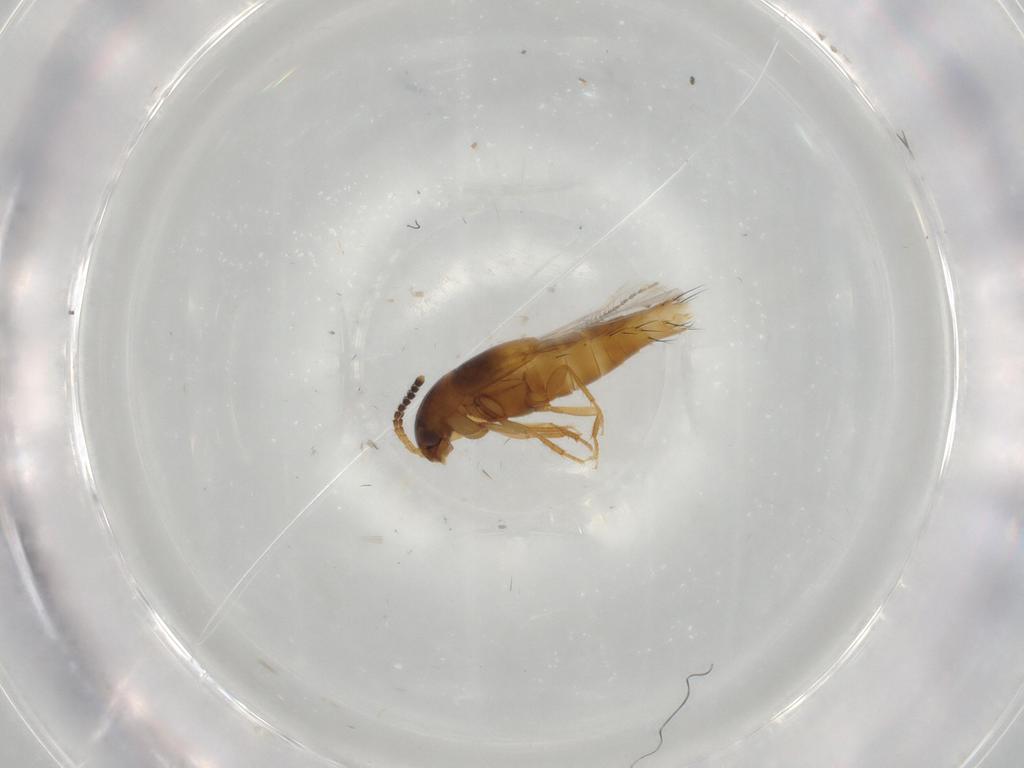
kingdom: Animalia
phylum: Arthropoda
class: Insecta
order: Coleoptera
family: Staphylinidae
